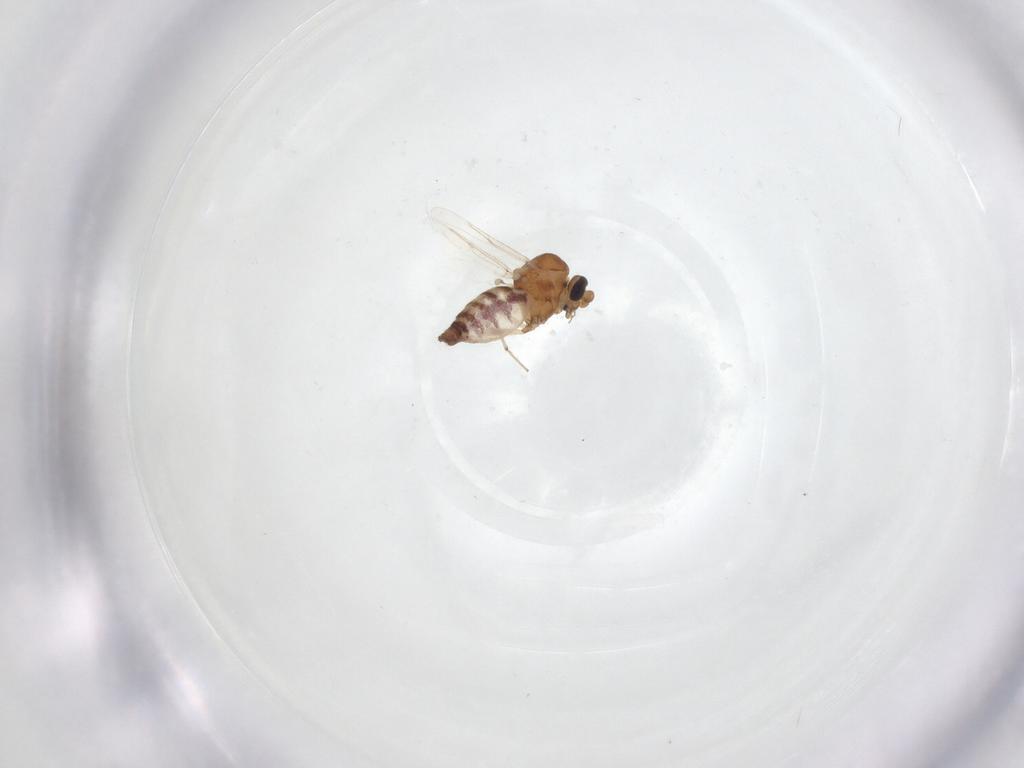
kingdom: Animalia
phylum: Arthropoda
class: Insecta
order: Diptera
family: Ceratopogonidae
